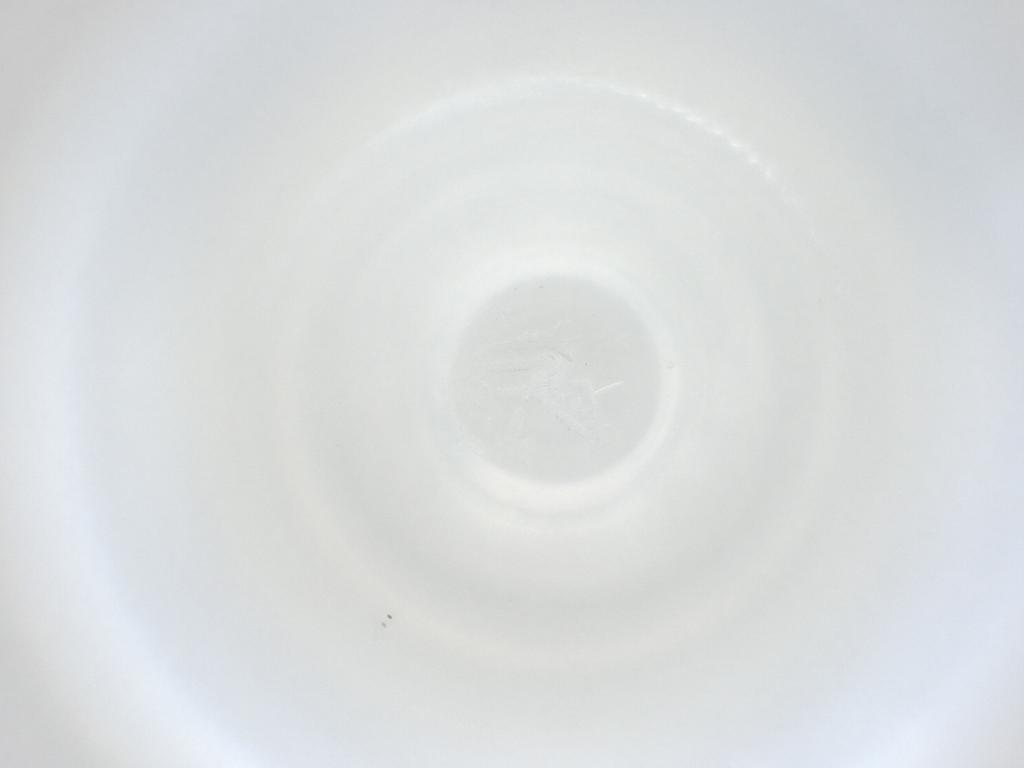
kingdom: Animalia
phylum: Arthropoda
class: Insecta
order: Diptera
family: Cecidomyiidae
